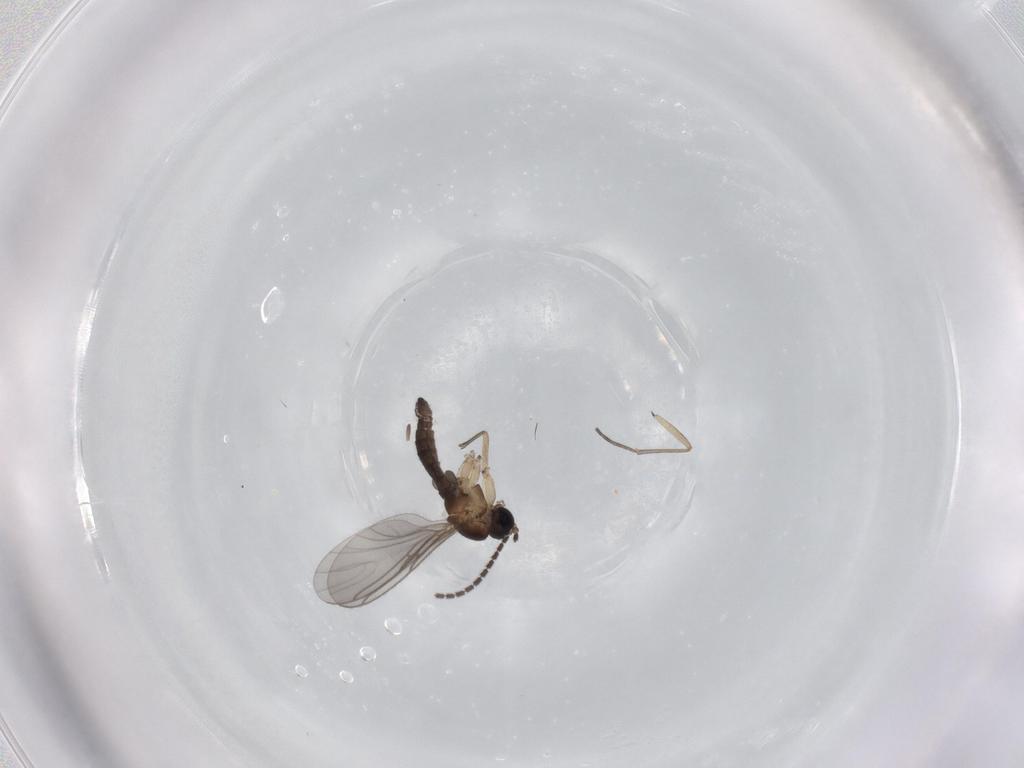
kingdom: Animalia
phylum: Arthropoda
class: Insecta
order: Diptera
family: Sciaridae
